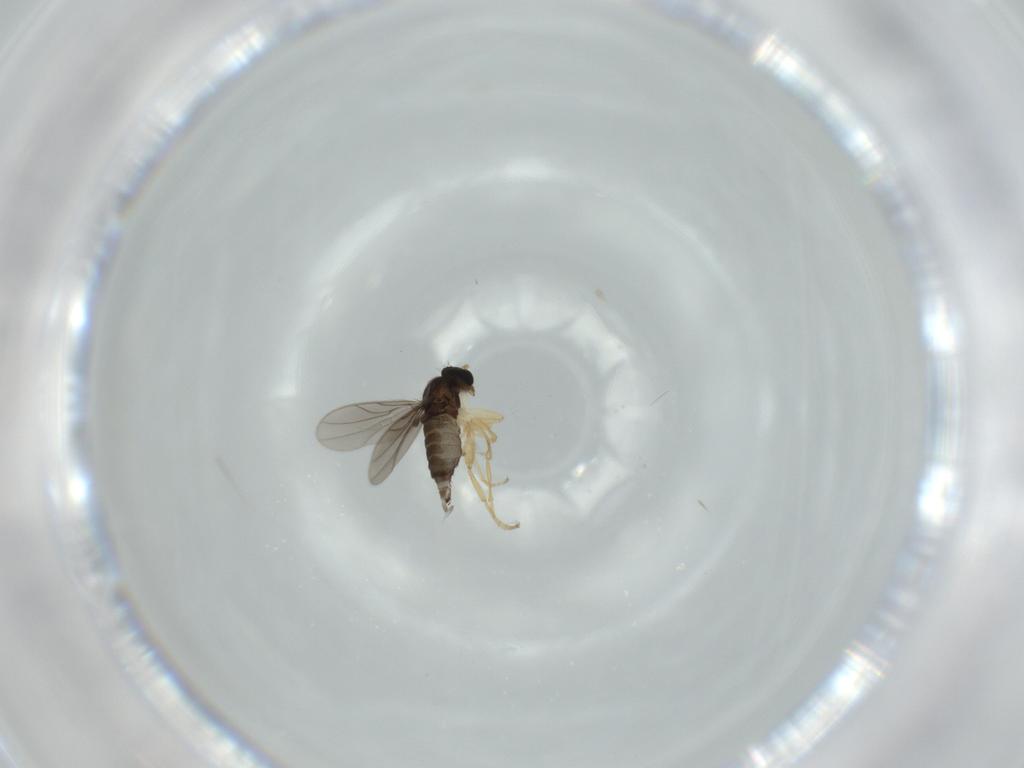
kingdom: Animalia
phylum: Arthropoda
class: Insecta
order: Diptera
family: Hybotidae
